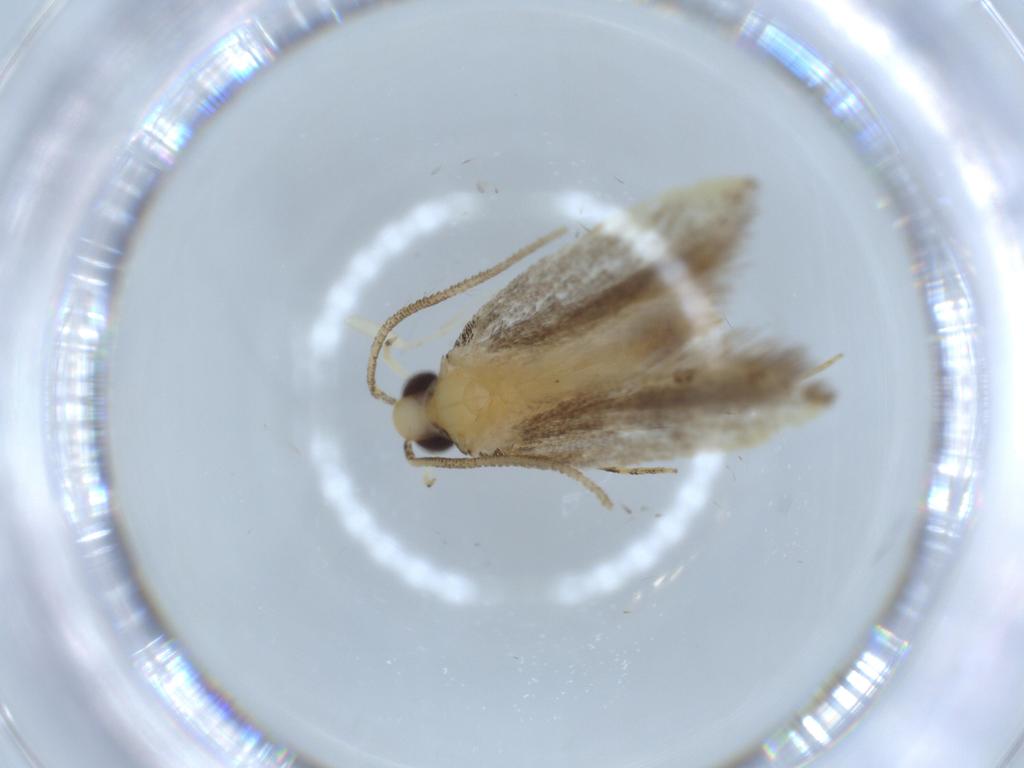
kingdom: Animalia
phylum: Arthropoda
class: Insecta
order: Lepidoptera
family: Autostichidae
